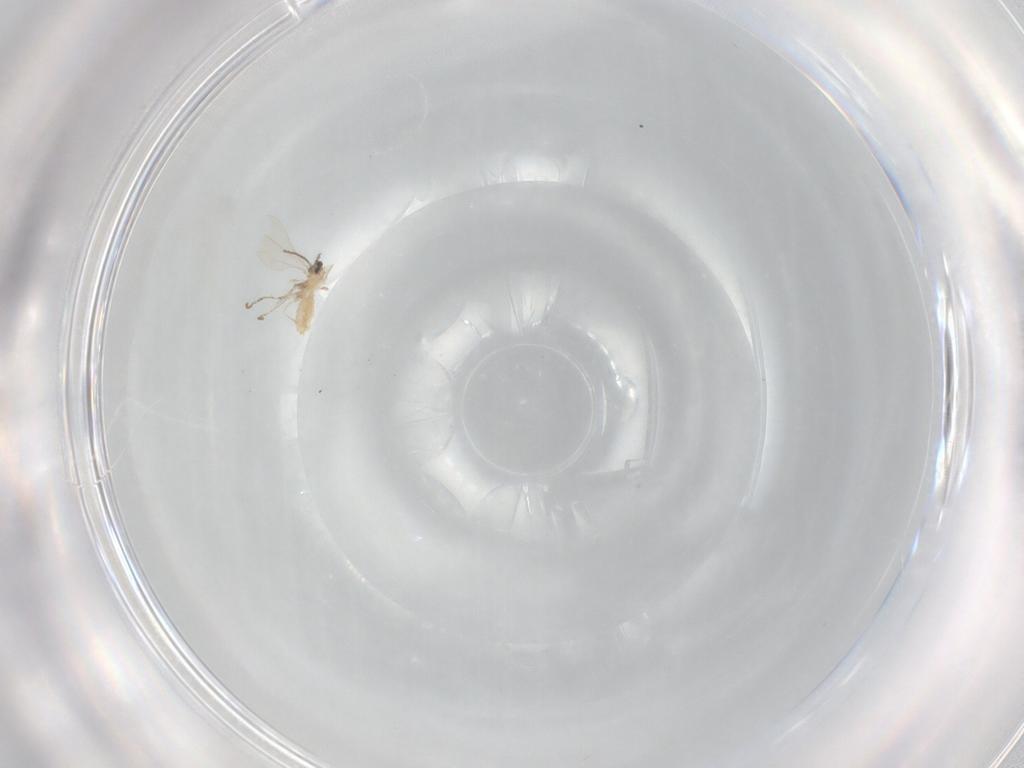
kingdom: Animalia
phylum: Arthropoda
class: Insecta
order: Diptera
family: Cecidomyiidae
